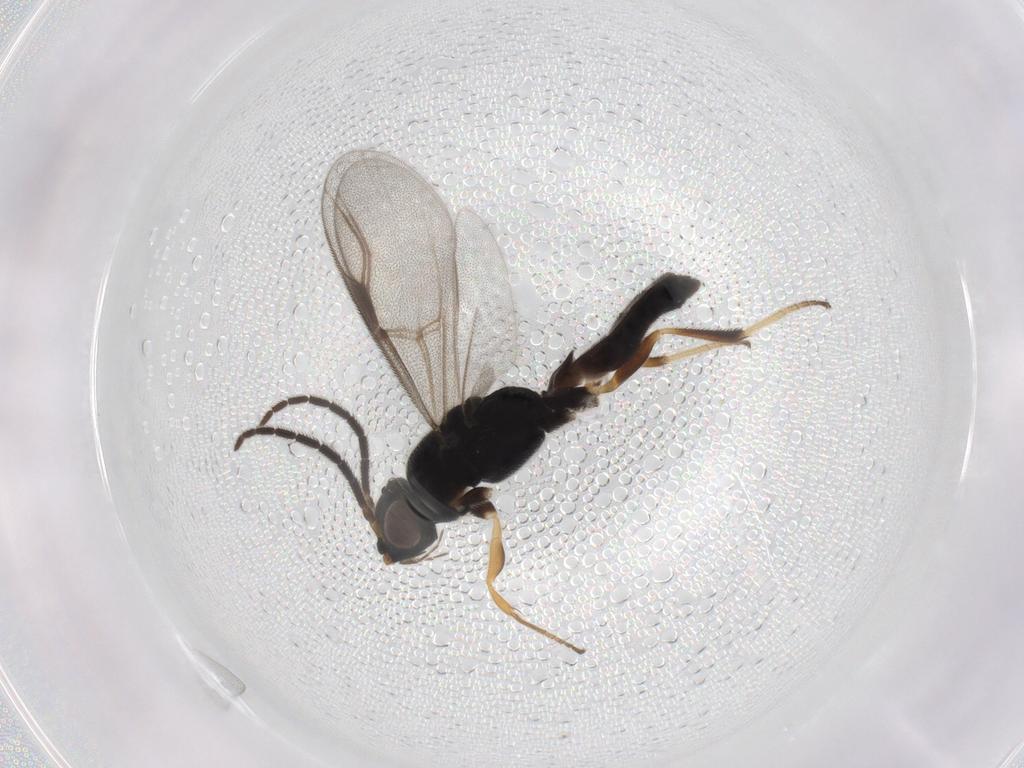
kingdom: Animalia
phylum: Arthropoda
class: Insecta
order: Hymenoptera
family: Dryinidae
